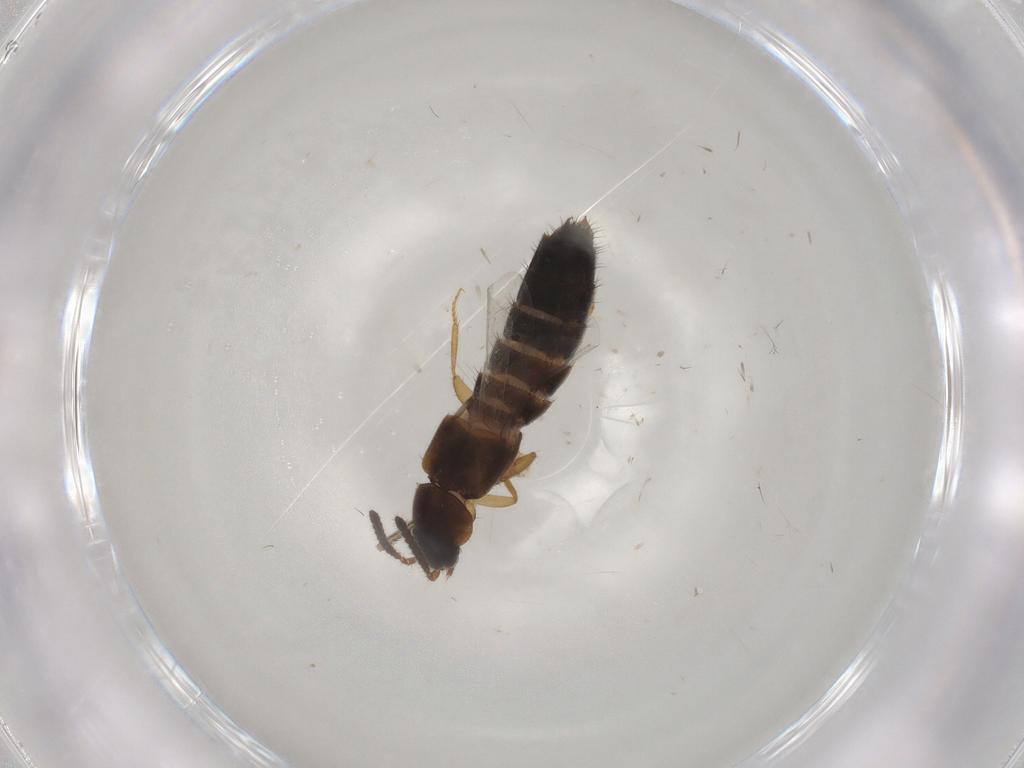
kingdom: Animalia
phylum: Arthropoda
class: Insecta
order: Coleoptera
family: Staphylinidae
